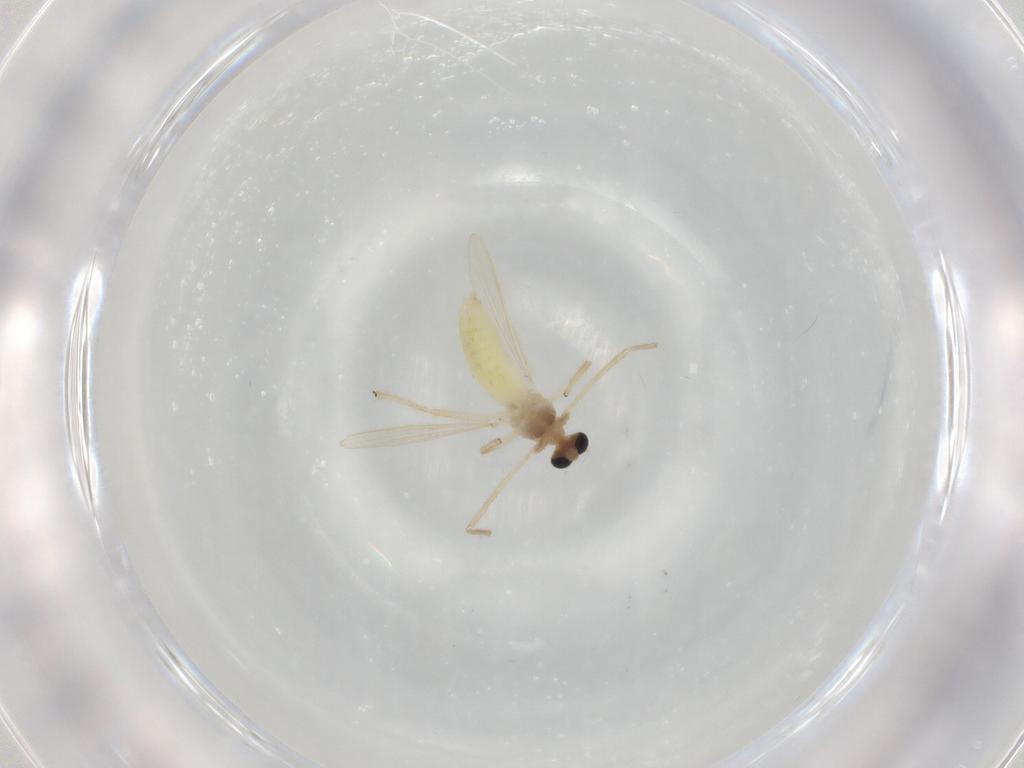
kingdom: Animalia
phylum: Arthropoda
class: Insecta
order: Diptera
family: Chironomidae
